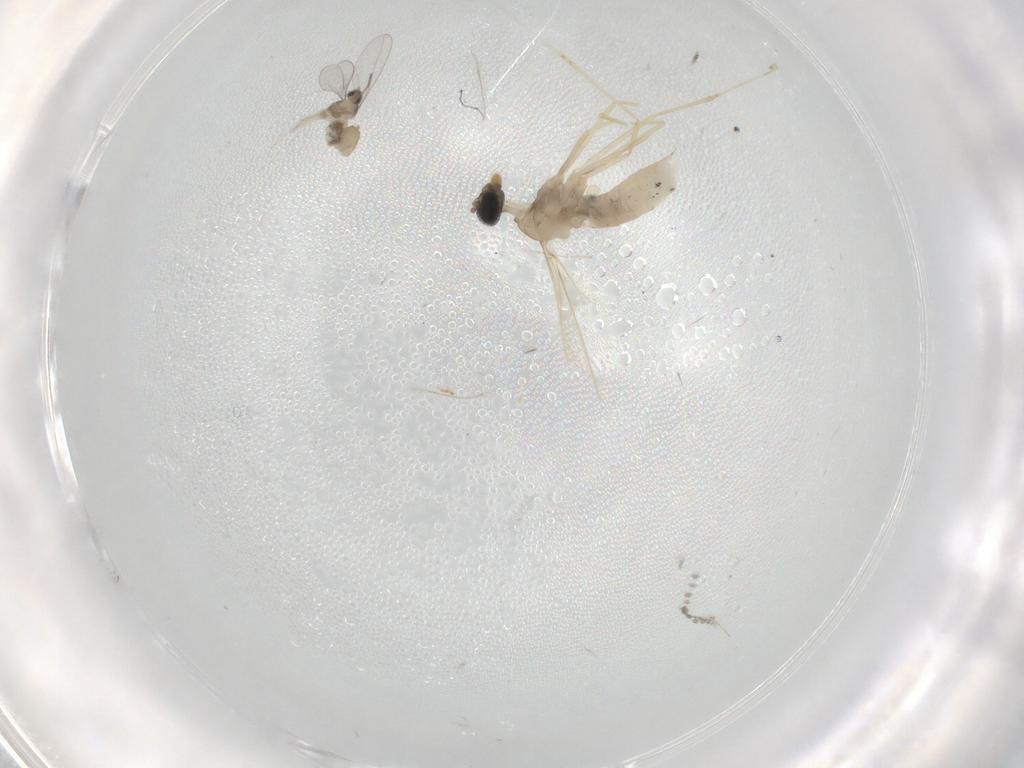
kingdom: Animalia
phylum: Arthropoda
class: Insecta
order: Diptera
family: Cecidomyiidae
